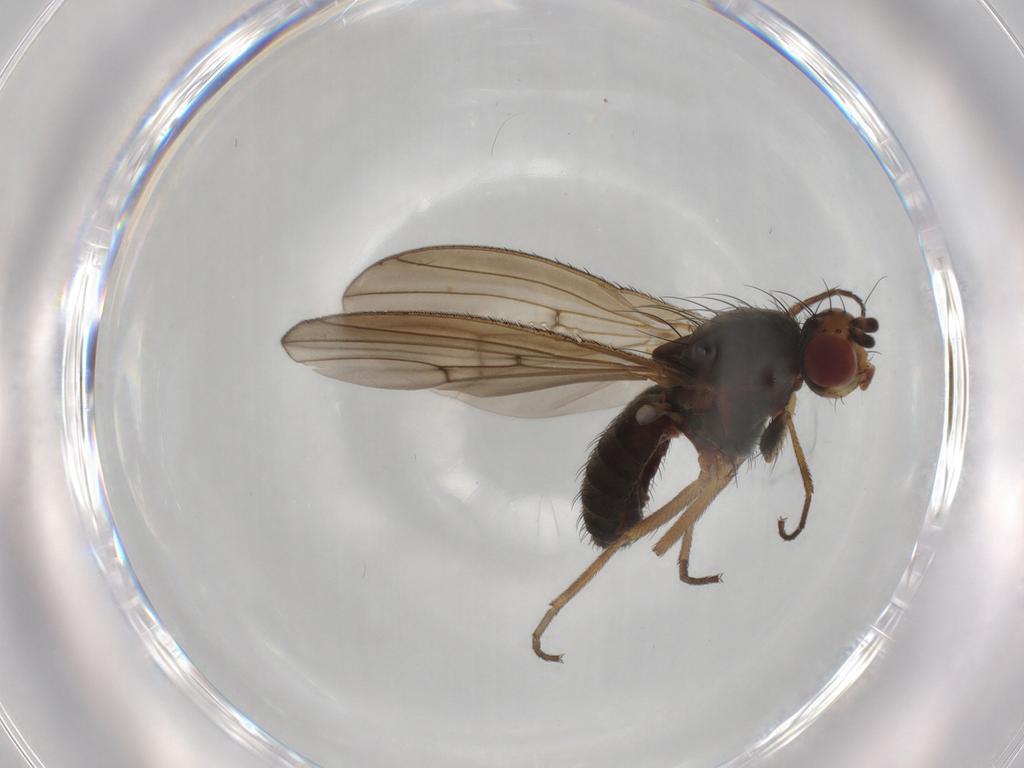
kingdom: Animalia
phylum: Arthropoda
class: Insecta
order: Diptera
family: Heleomyzidae
